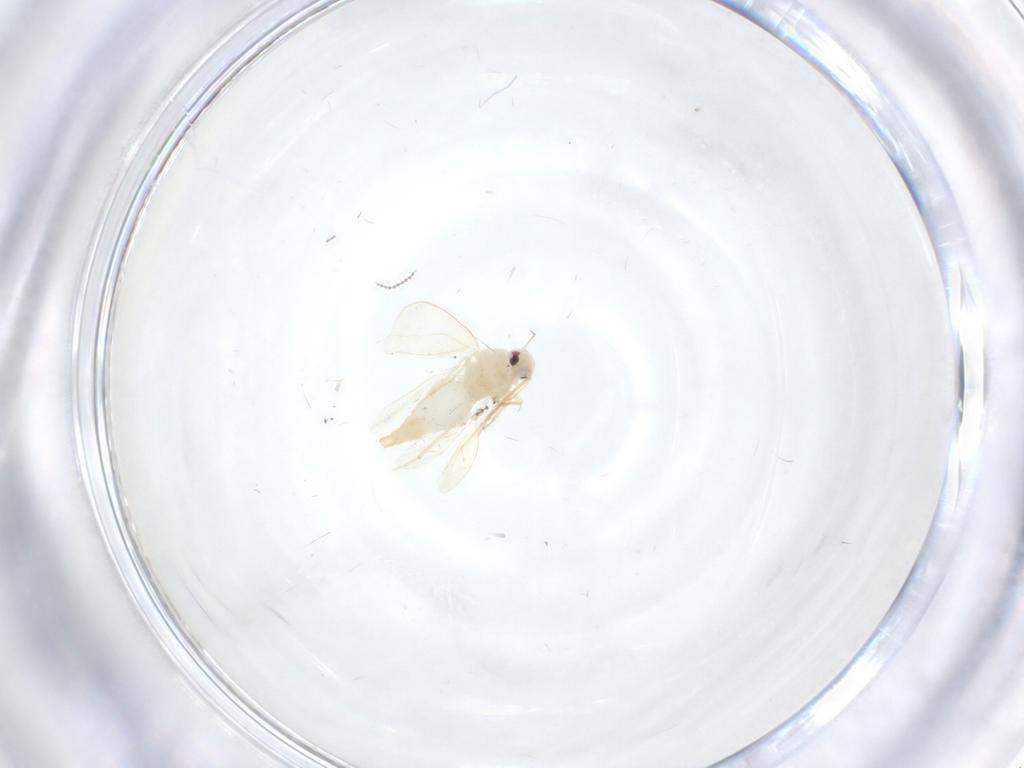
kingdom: Animalia
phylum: Arthropoda
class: Insecta
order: Hemiptera
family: Aleyrodidae
